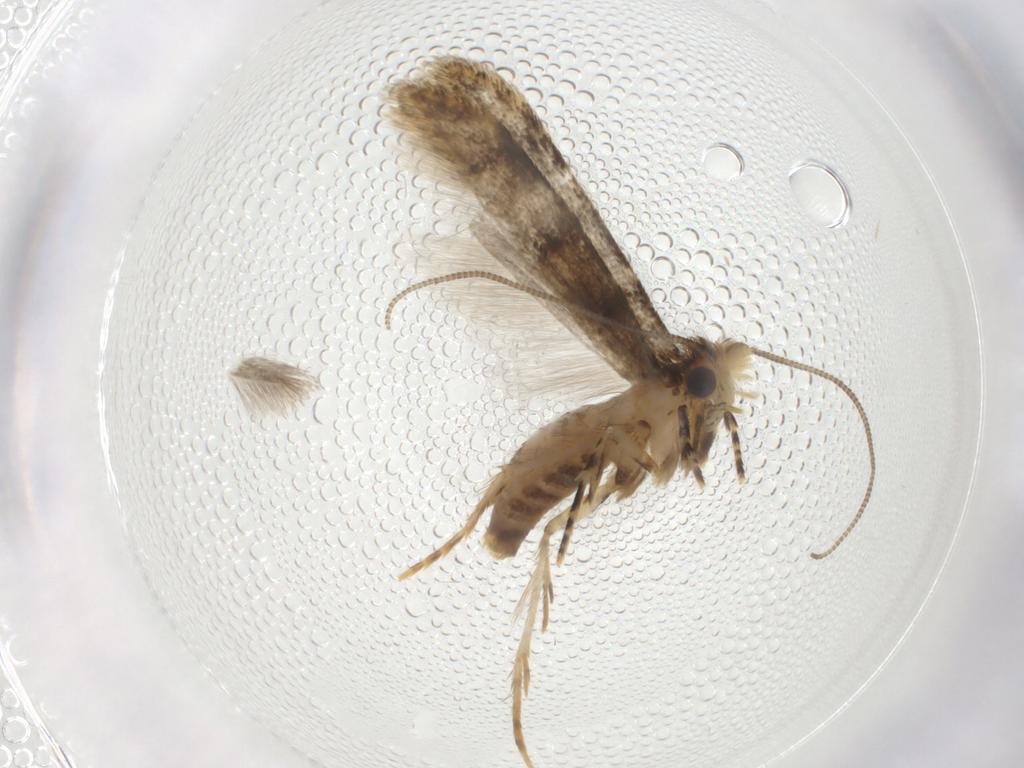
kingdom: Animalia
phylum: Arthropoda
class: Insecta
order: Lepidoptera
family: Tineidae
